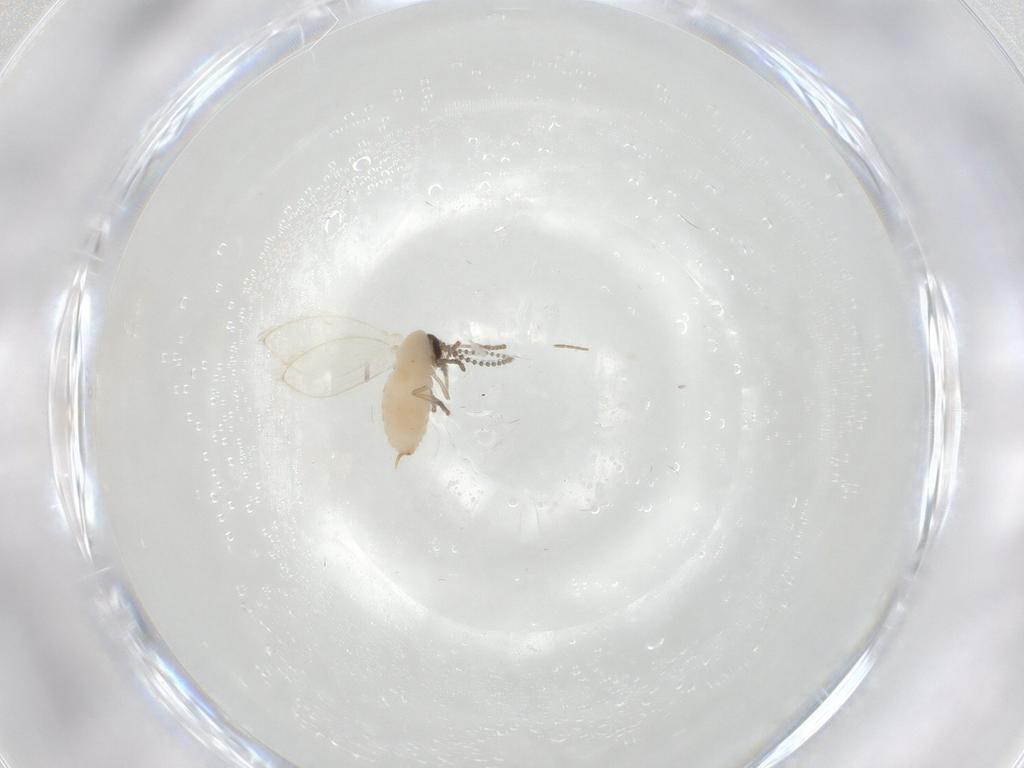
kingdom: Animalia
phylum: Arthropoda
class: Insecta
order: Diptera
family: Psychodidae
